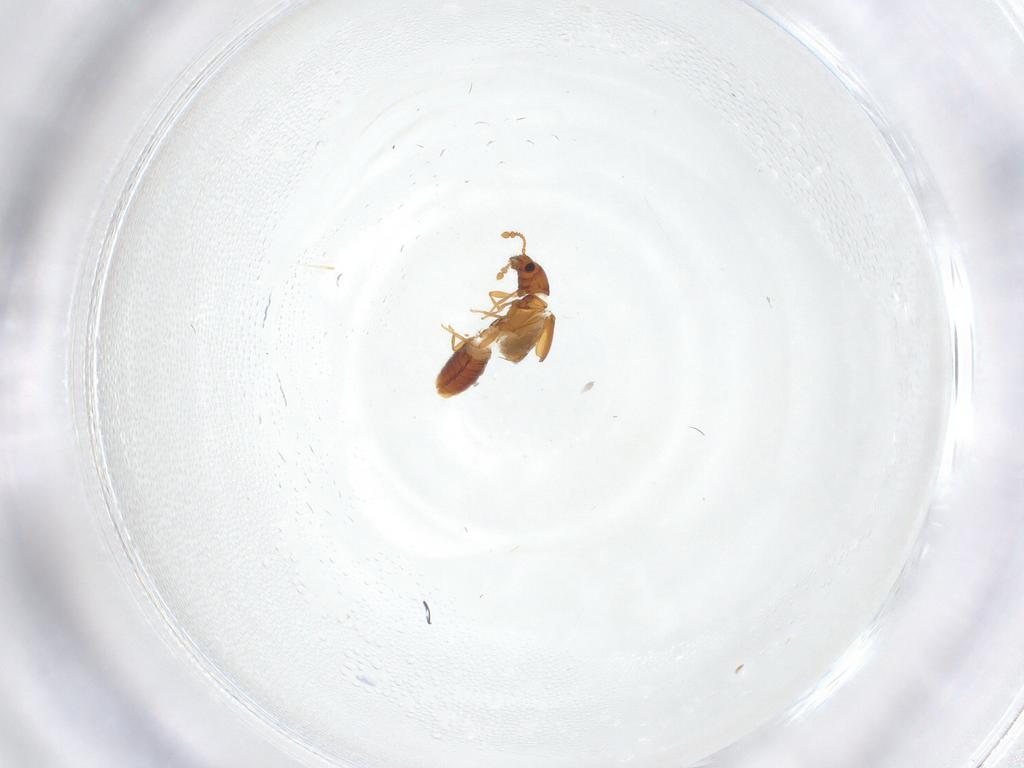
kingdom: Animalia
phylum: Arthropoda
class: Insecta
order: Coleoptera
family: Staphylinidae
